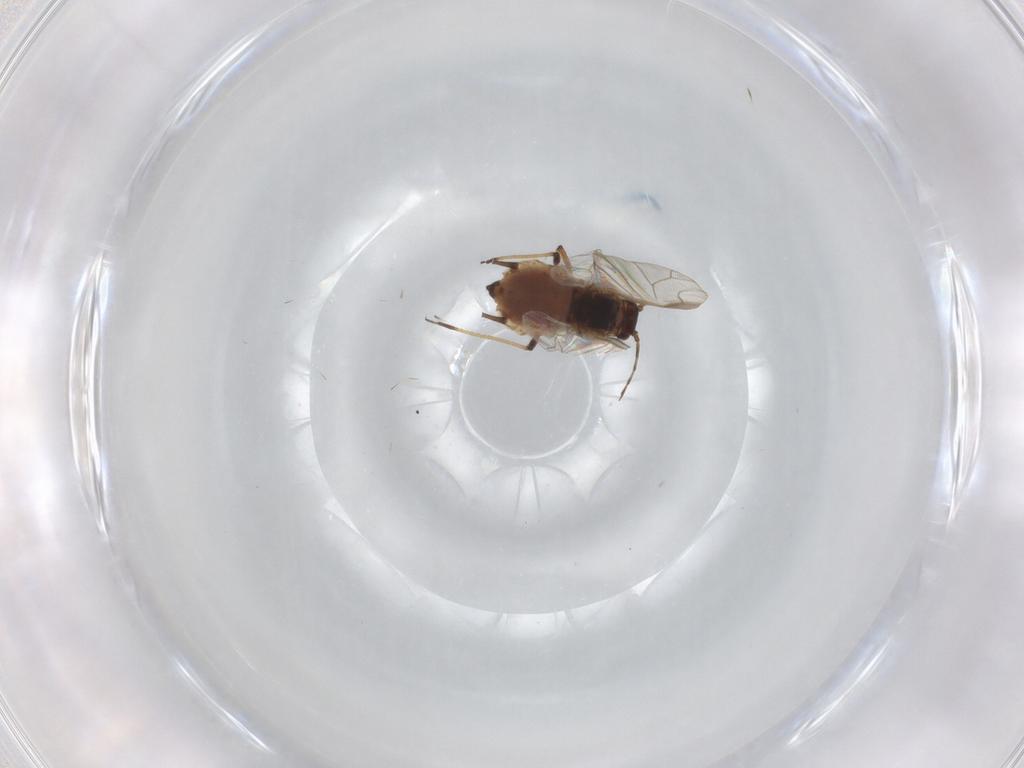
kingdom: Animalia
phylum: Arthropoda
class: Insecta
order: Hemiptera
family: Aphididae
